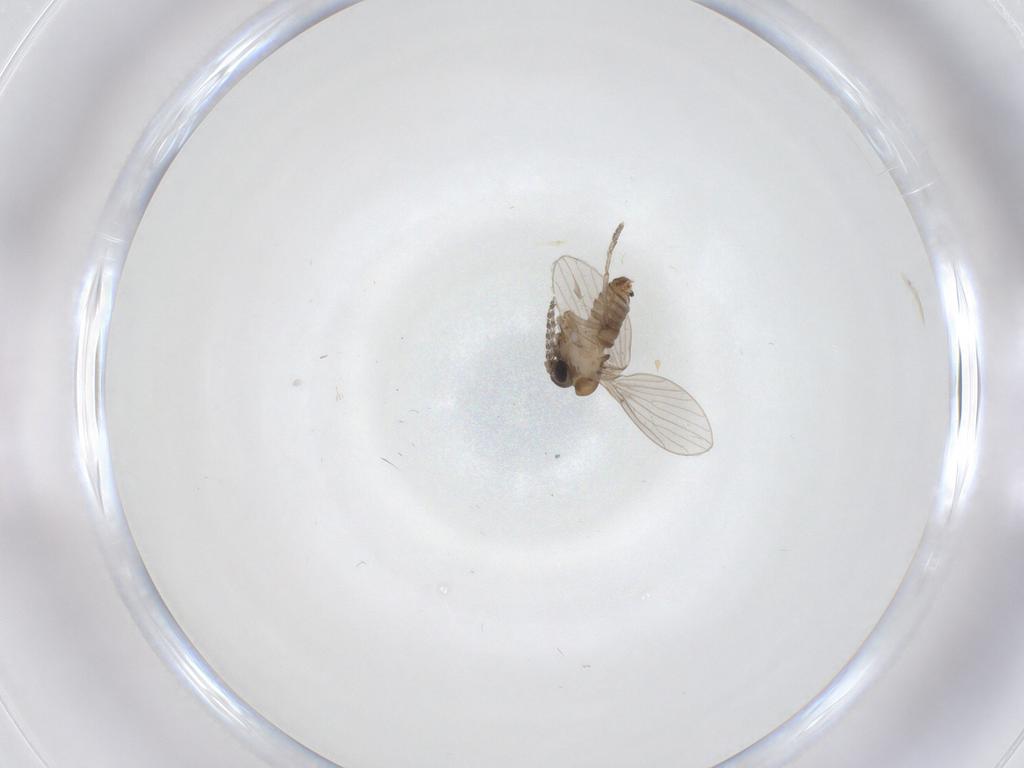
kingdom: Animalia
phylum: Arthropoda
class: Insecta
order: Diptera
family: Cecidomyiidae
